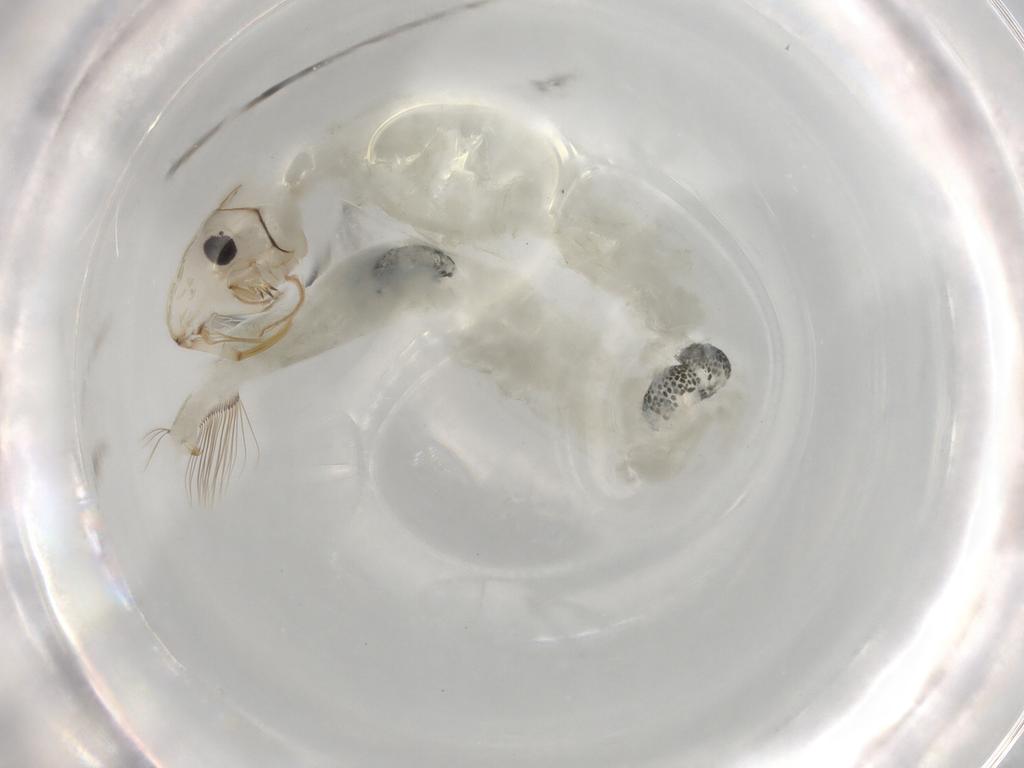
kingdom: Animalia
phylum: Arthropoda
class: Insecta
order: Diptera
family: Chaoboridae
